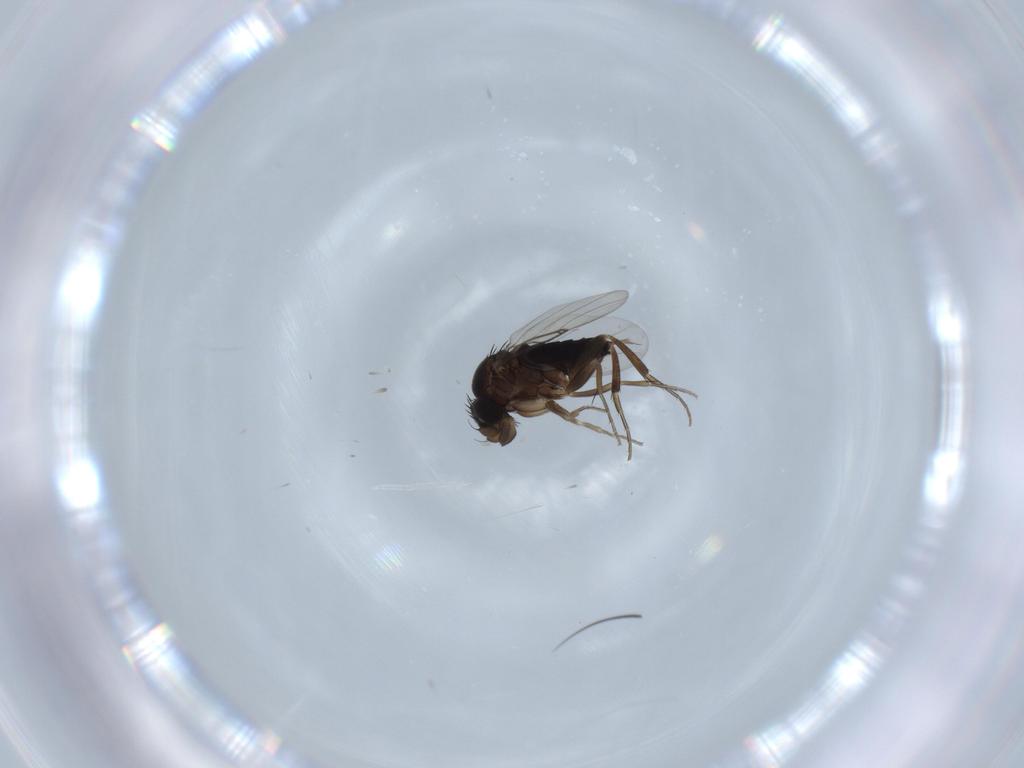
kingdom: Animalia
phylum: Arthropoda
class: Insecta
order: Diptera
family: Phoridae
